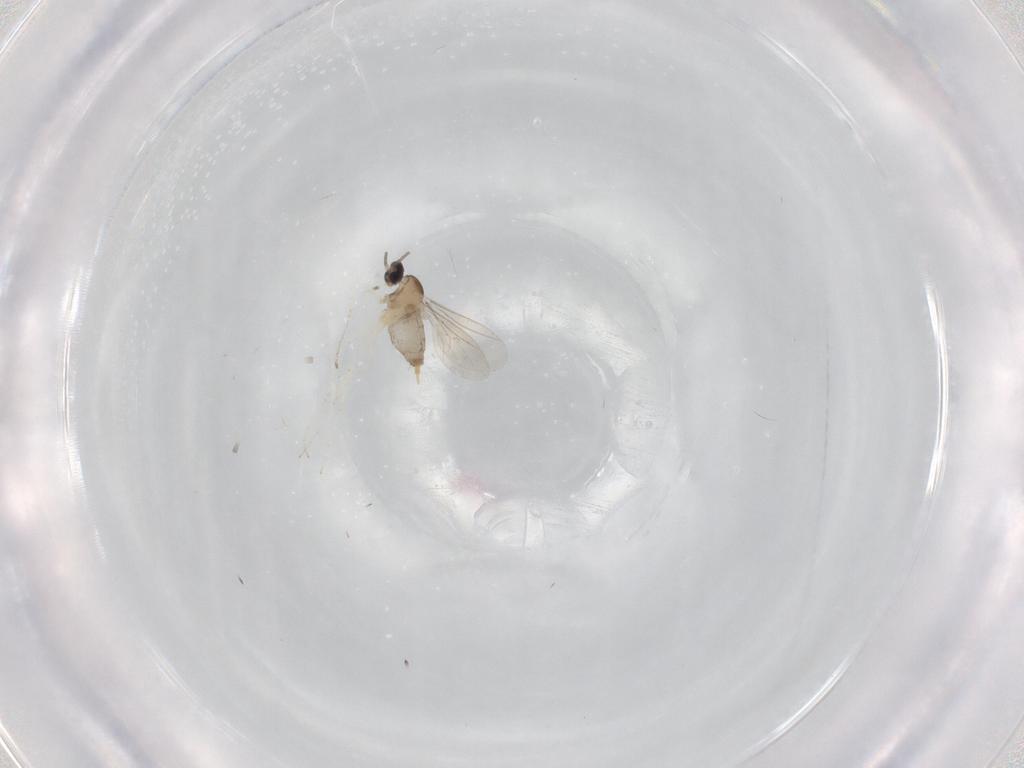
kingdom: Animalia
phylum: Arthropoda
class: Insecta
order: Diptera
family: Cecidomyiidae
